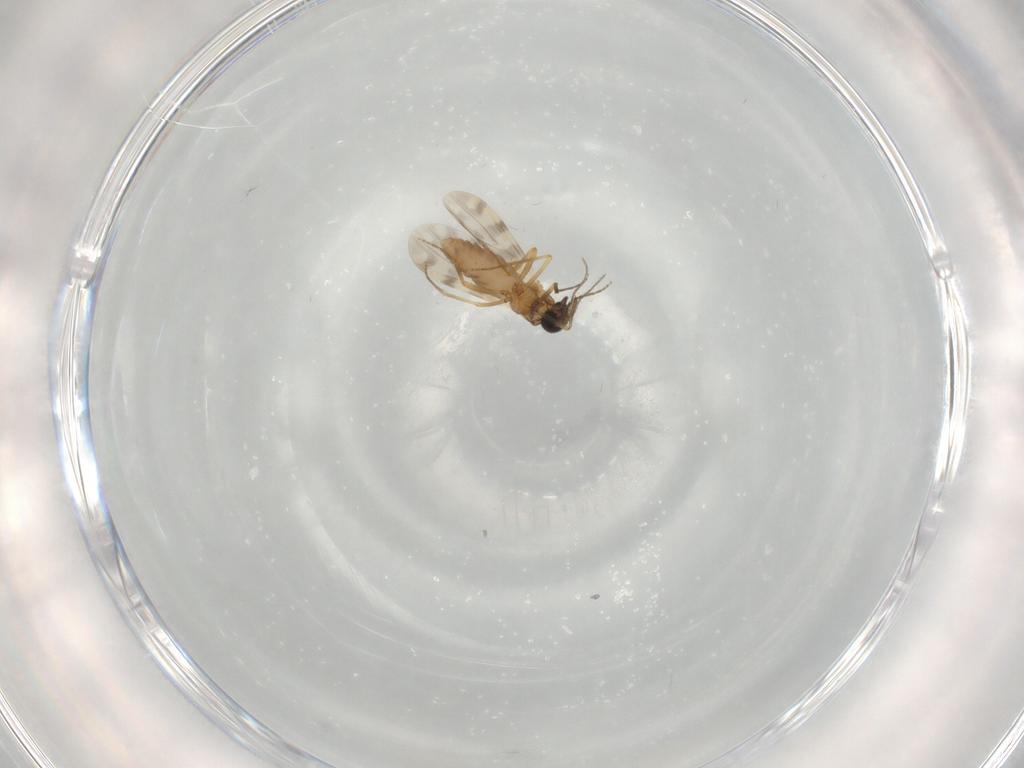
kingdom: Animalia
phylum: Arthropoda
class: Insecta
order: Diptera
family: Ceratopogonidae
